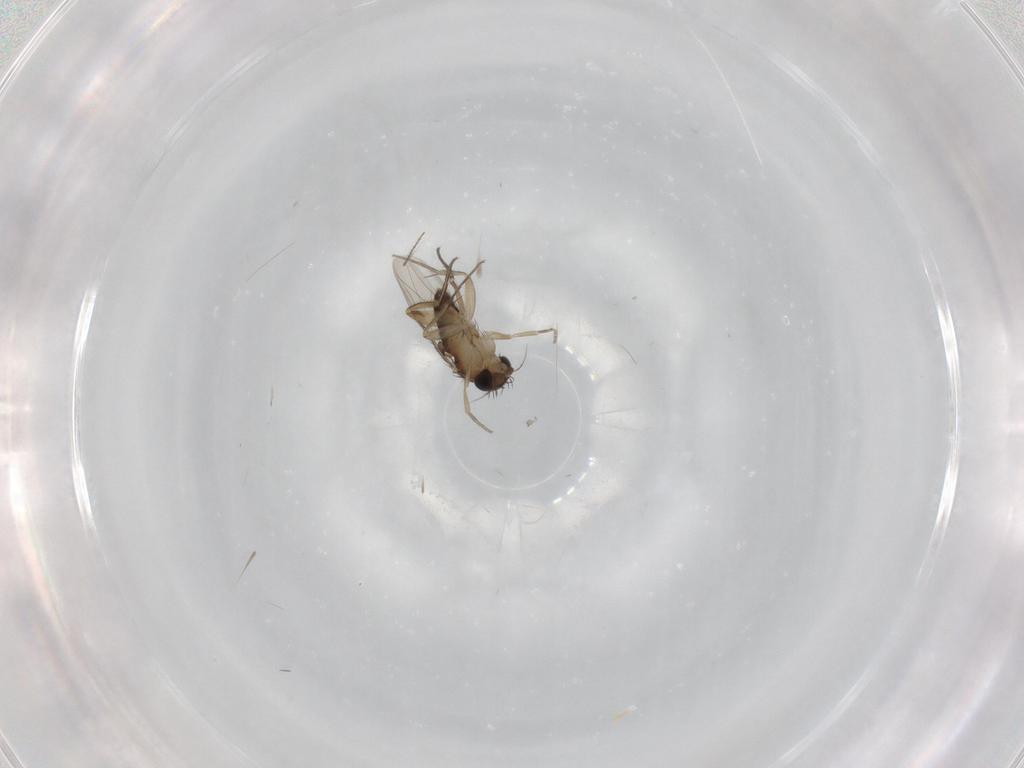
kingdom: Animalia
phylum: Arthropoda
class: Insecta
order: Diptera
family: Phoridae
